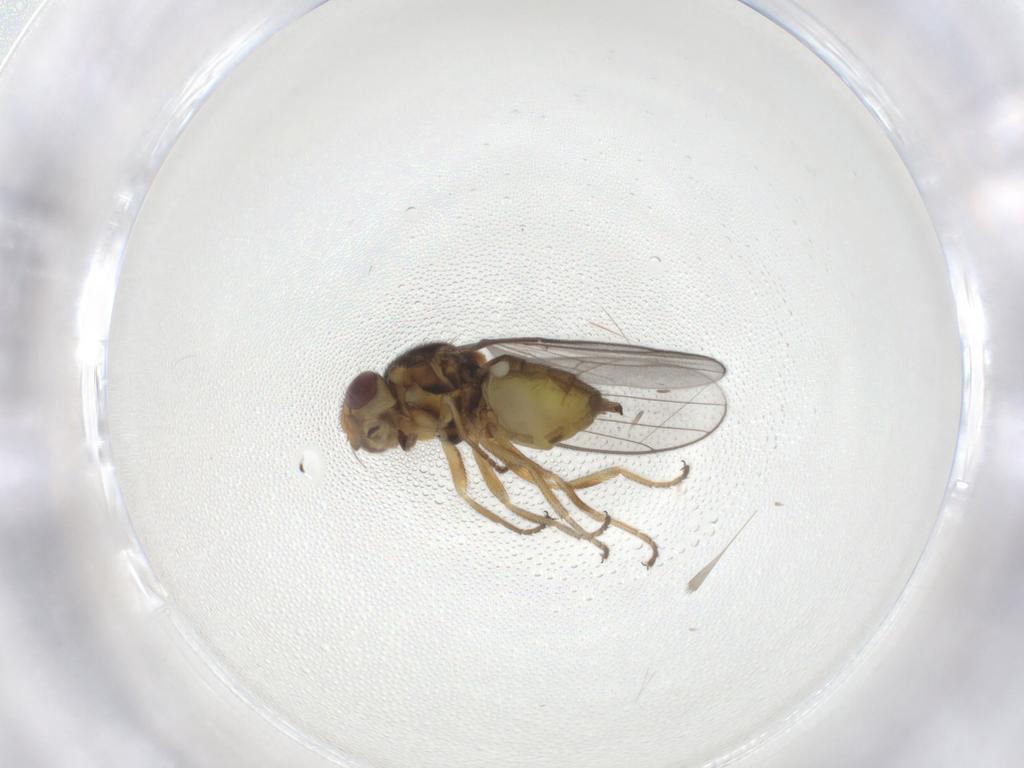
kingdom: Animalia
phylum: Arthropoda
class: Insecta
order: Diptera
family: Chloropidae
